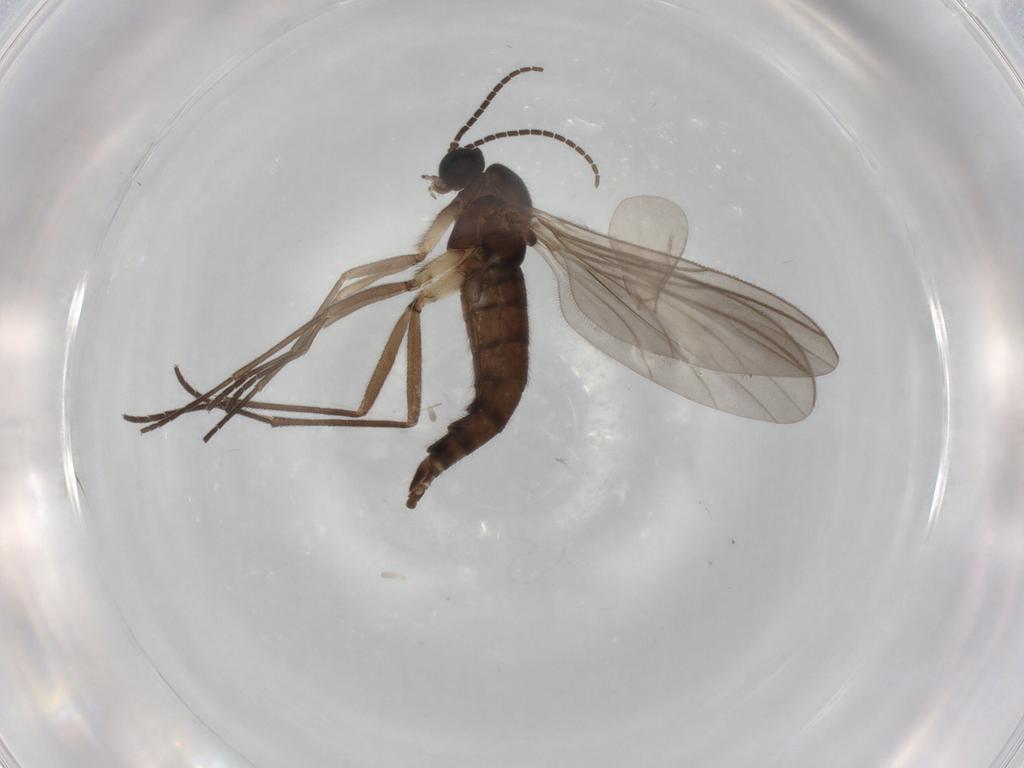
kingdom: Animalia
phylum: Arthropoda
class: Insecta
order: Diptera
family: Sciaridae
